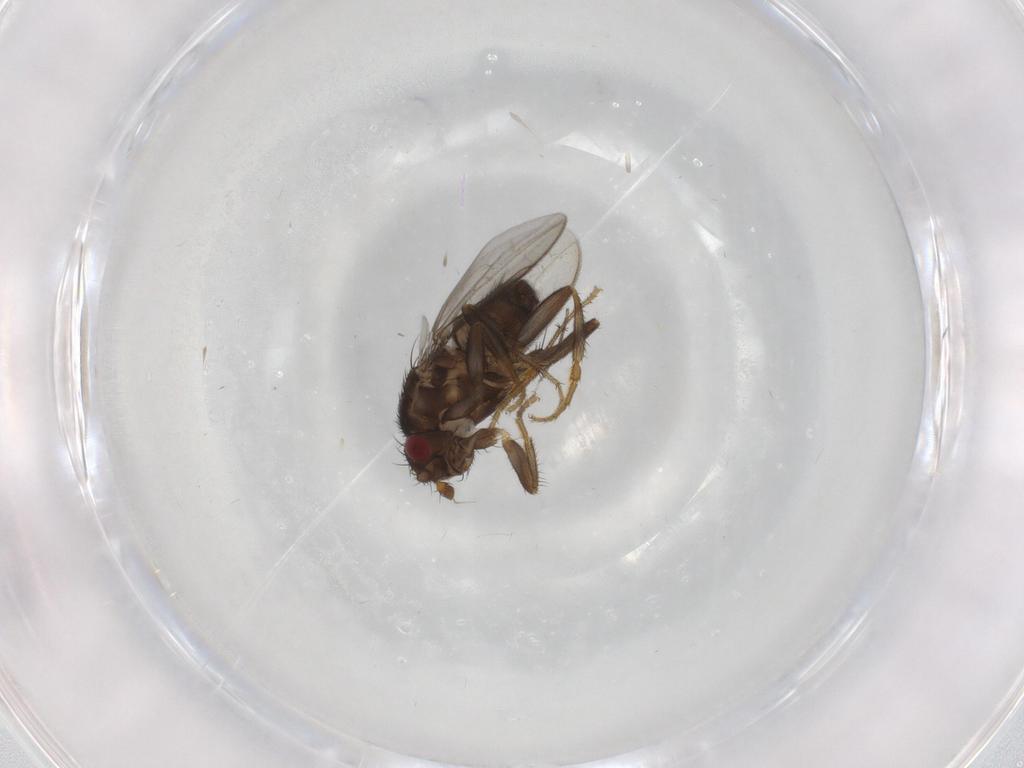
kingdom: Animalia
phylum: Arthropoda
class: Insecta
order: Diptera
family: Sphaeroceridae
